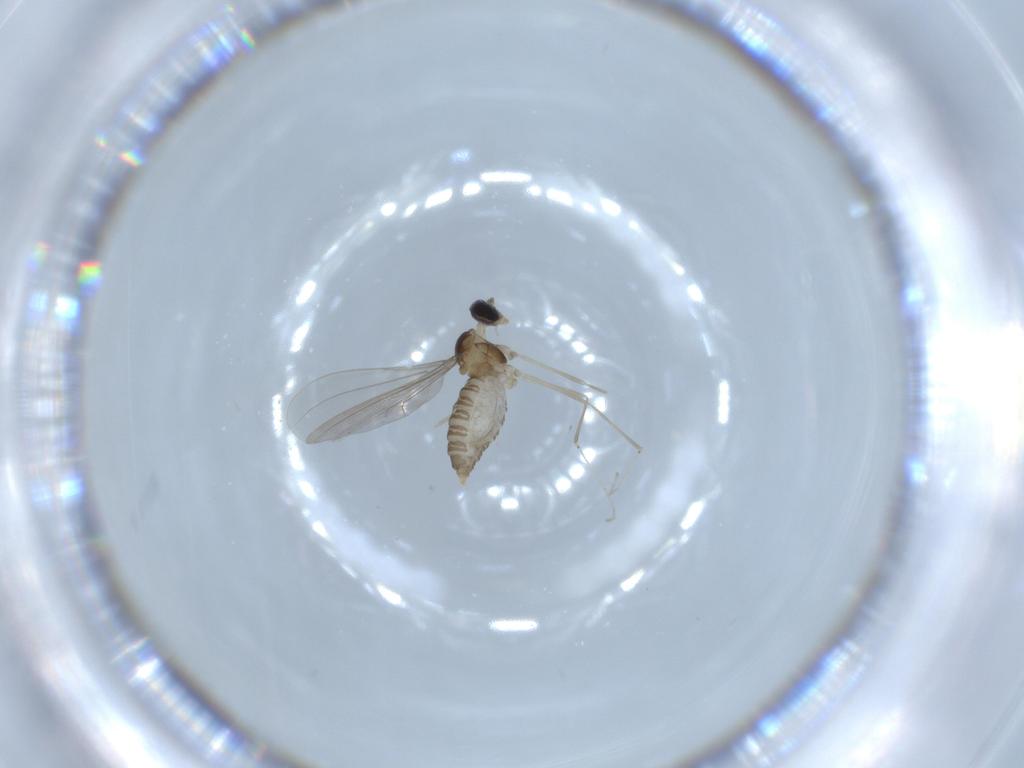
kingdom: Animalia
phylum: Arthropoda
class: Insecta
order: Diptera
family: Cecidomyiidae
